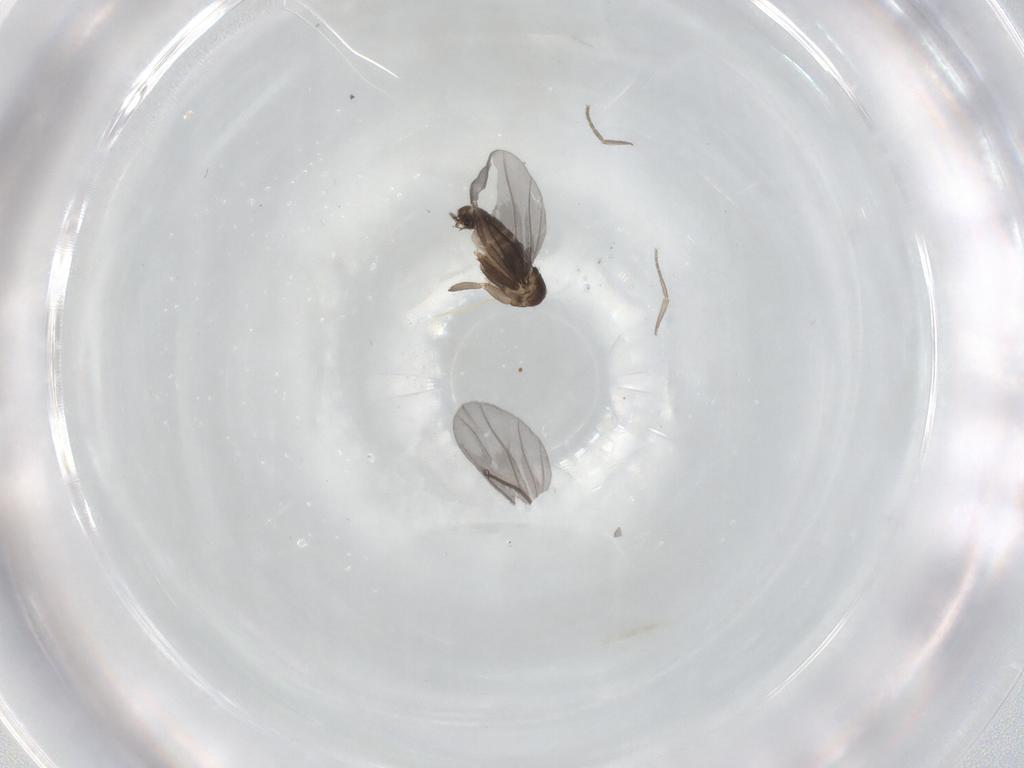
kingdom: Animalia
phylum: Arthropoda
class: Insecta
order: Diptera
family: Phoridae
